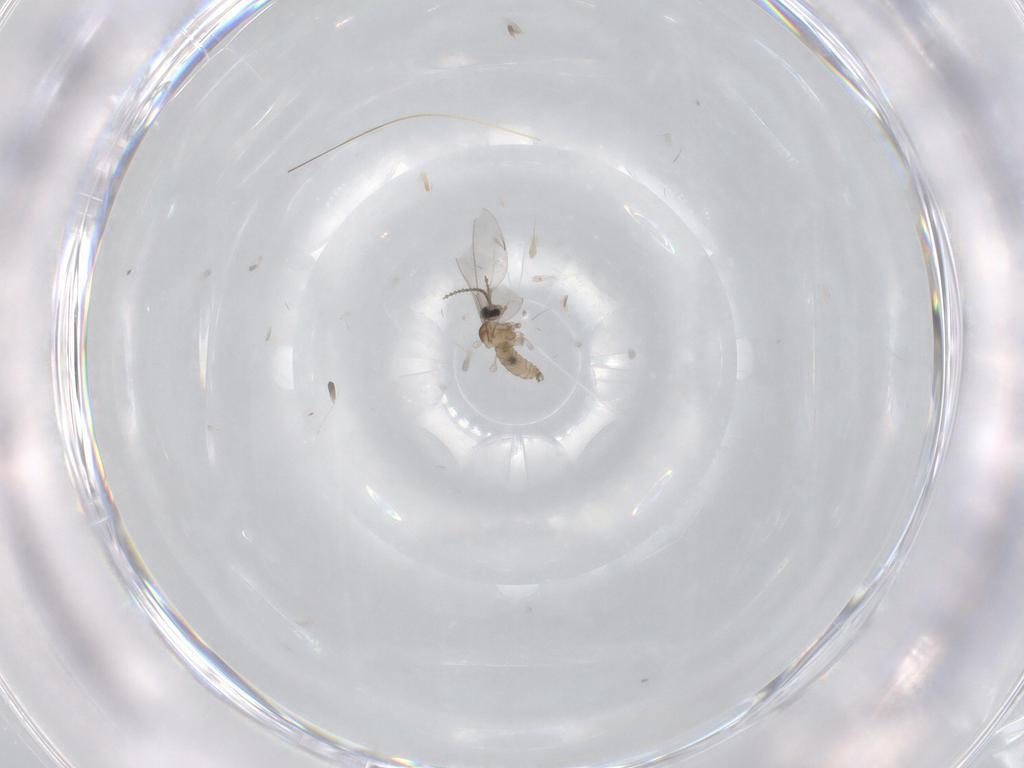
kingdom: Animalia
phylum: Arthropoda
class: Insecta
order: Diptera
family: Cecidomyiidae
